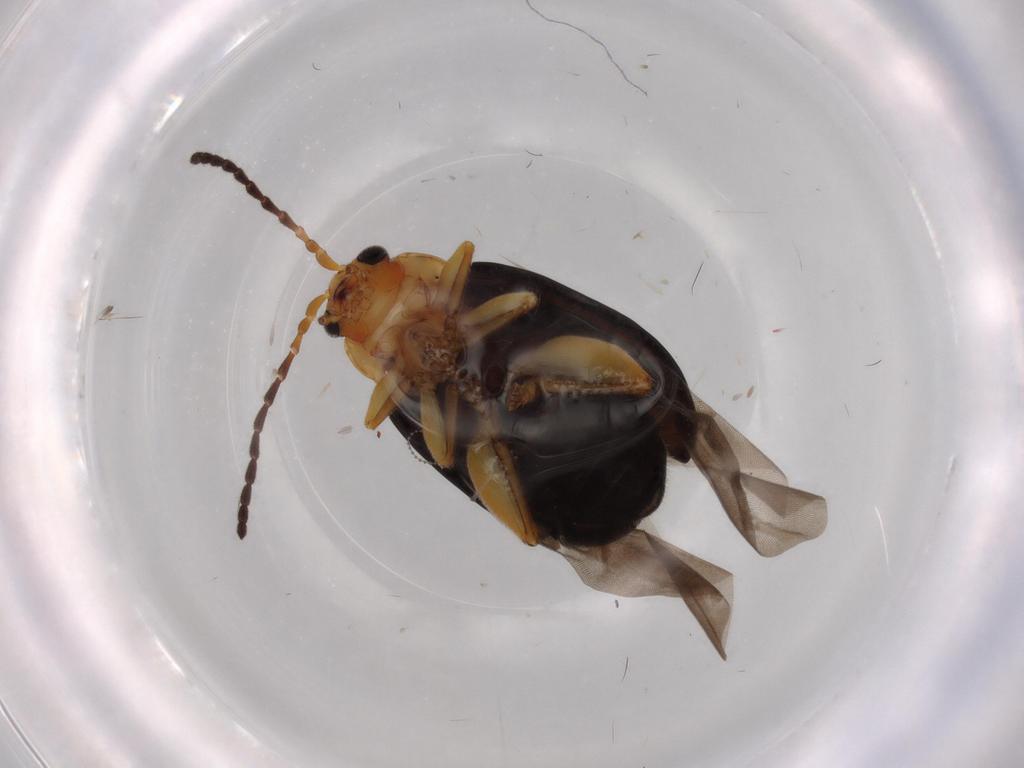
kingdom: Animalia
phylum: Arthropoda
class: Insecta
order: Coleoptera
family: Chrysomelidae
